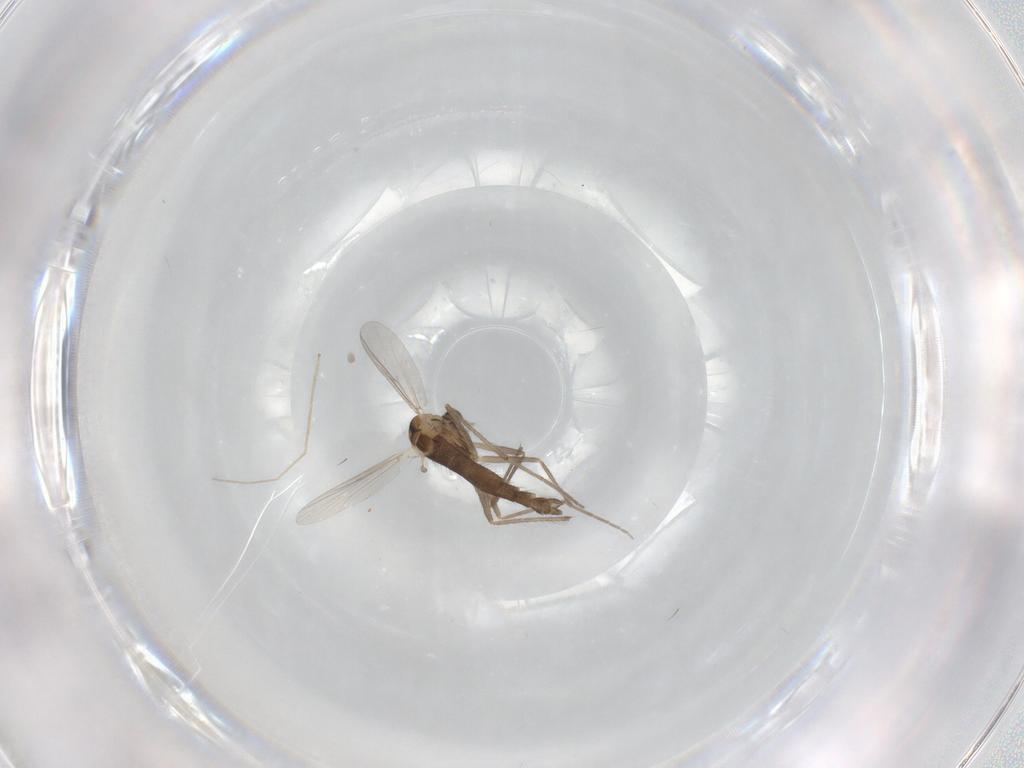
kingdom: Animalia
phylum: Arthropoda
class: Insecta
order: Diptera
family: Chironomidae
